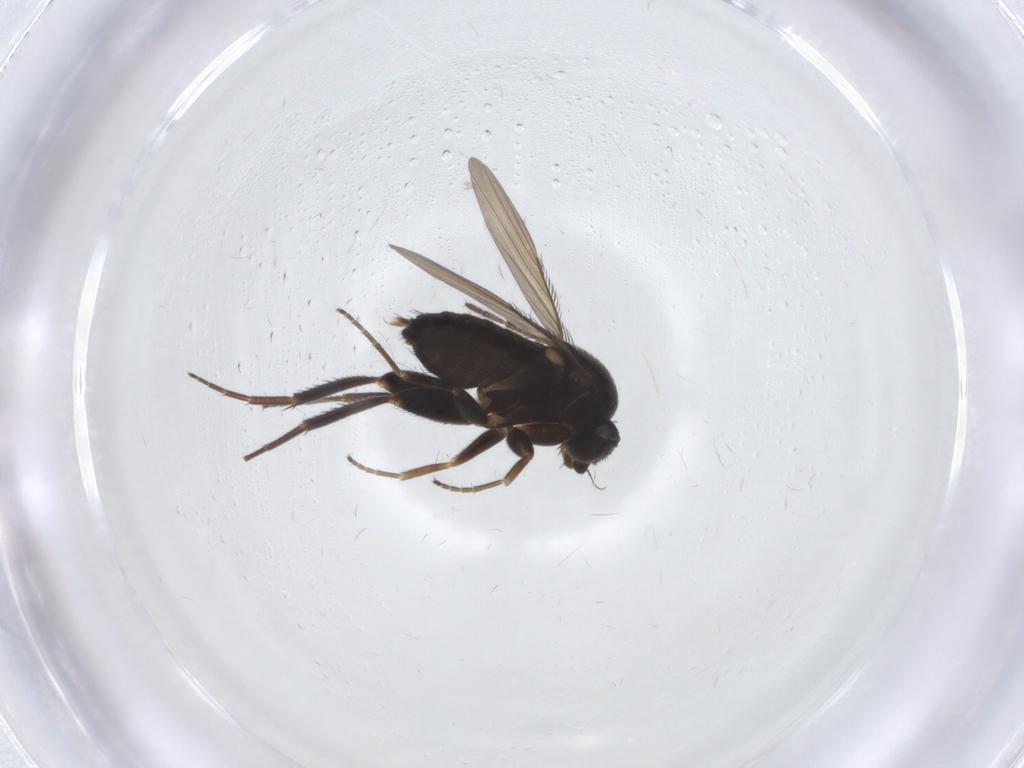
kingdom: Animalia
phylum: Arthropoda
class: Insecta
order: Diptera
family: Phoridae
